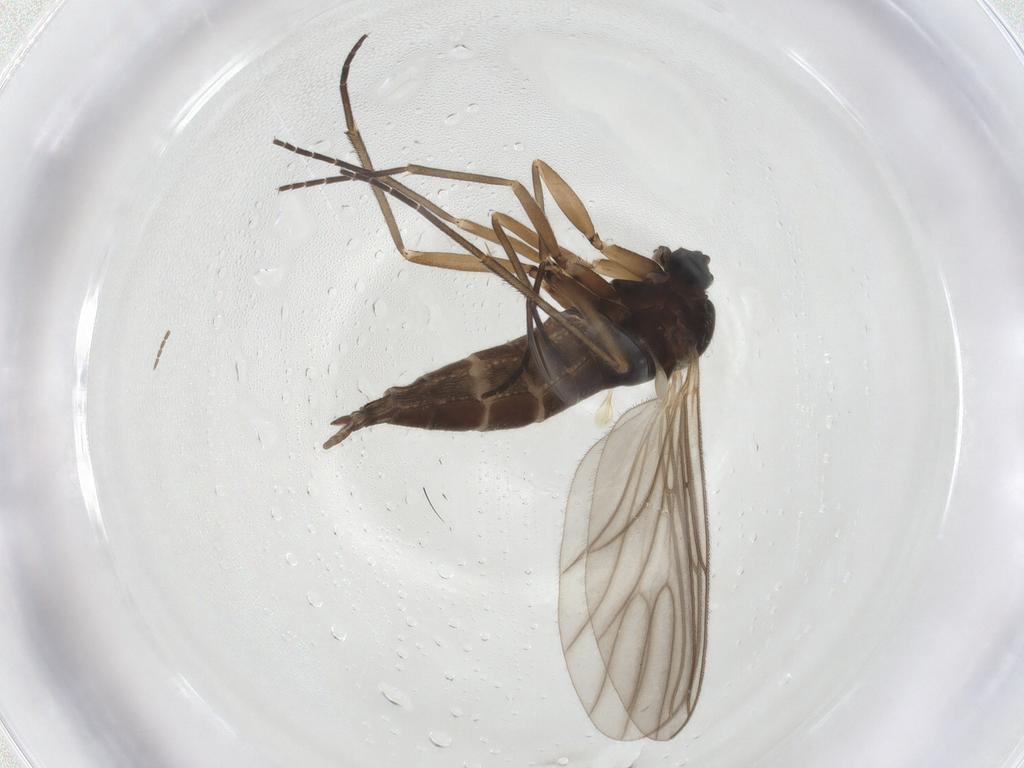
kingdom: Animalia
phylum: Arthropoda
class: Insecta
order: Diptera
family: Sciaridae
